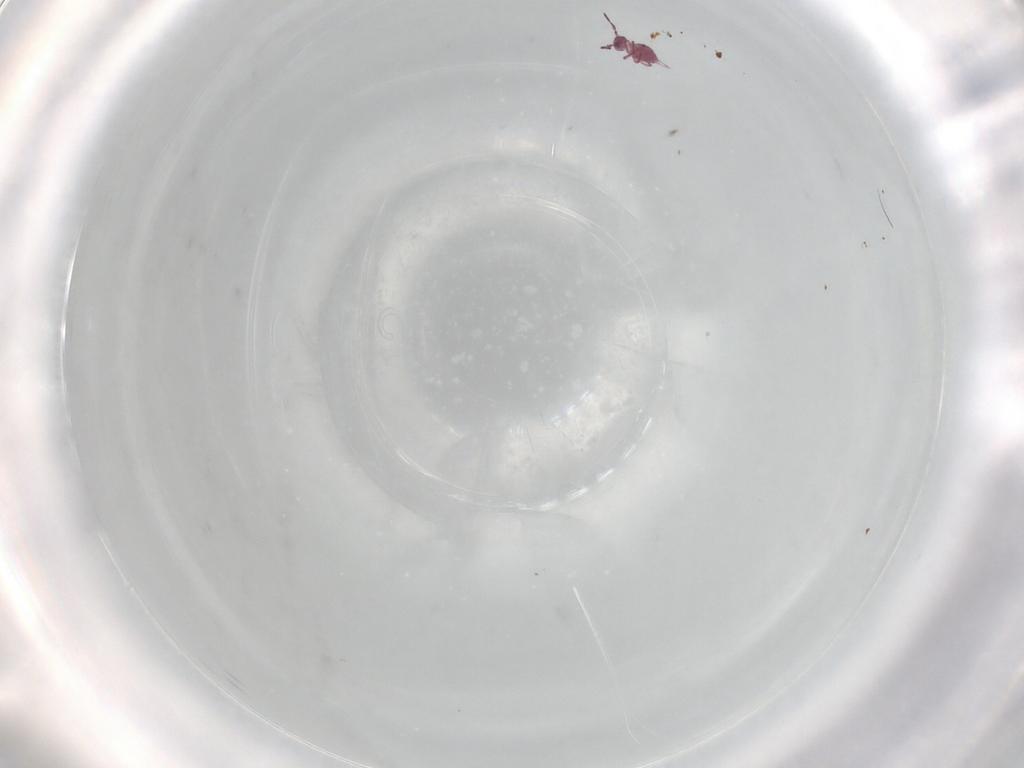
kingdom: Animalia
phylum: Arthropoda
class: Collembola
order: Symphypleona
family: Sminthurididae
